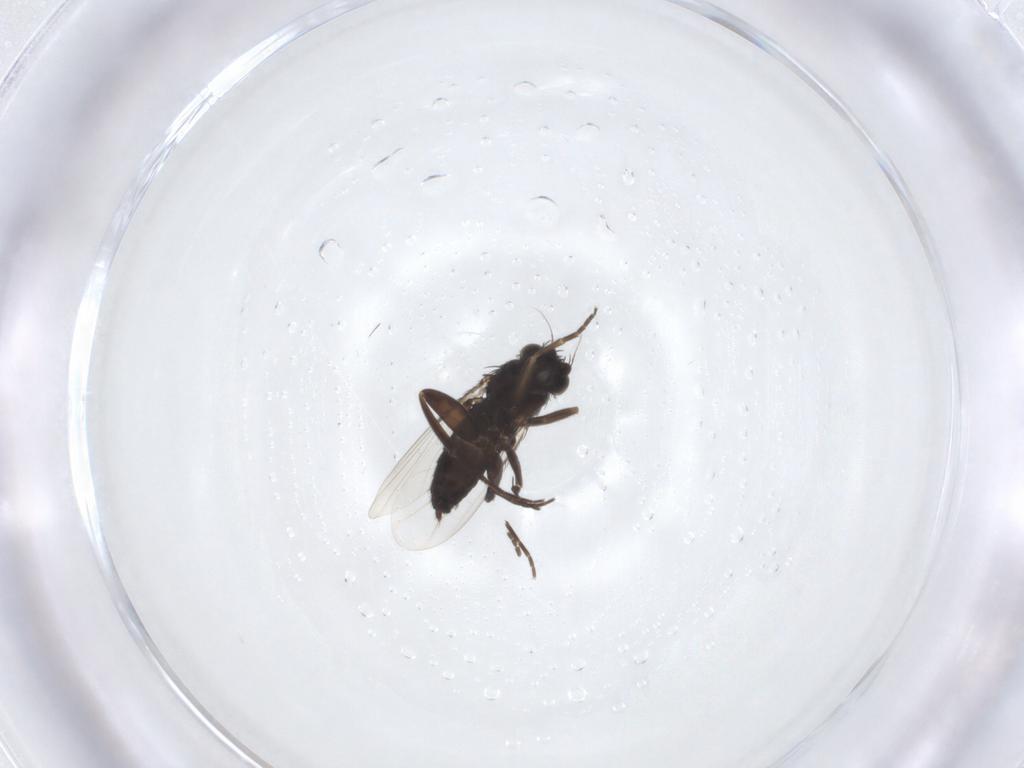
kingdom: Animalia
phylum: Arthropoda
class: Insecta
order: Diptera
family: Phoridae
